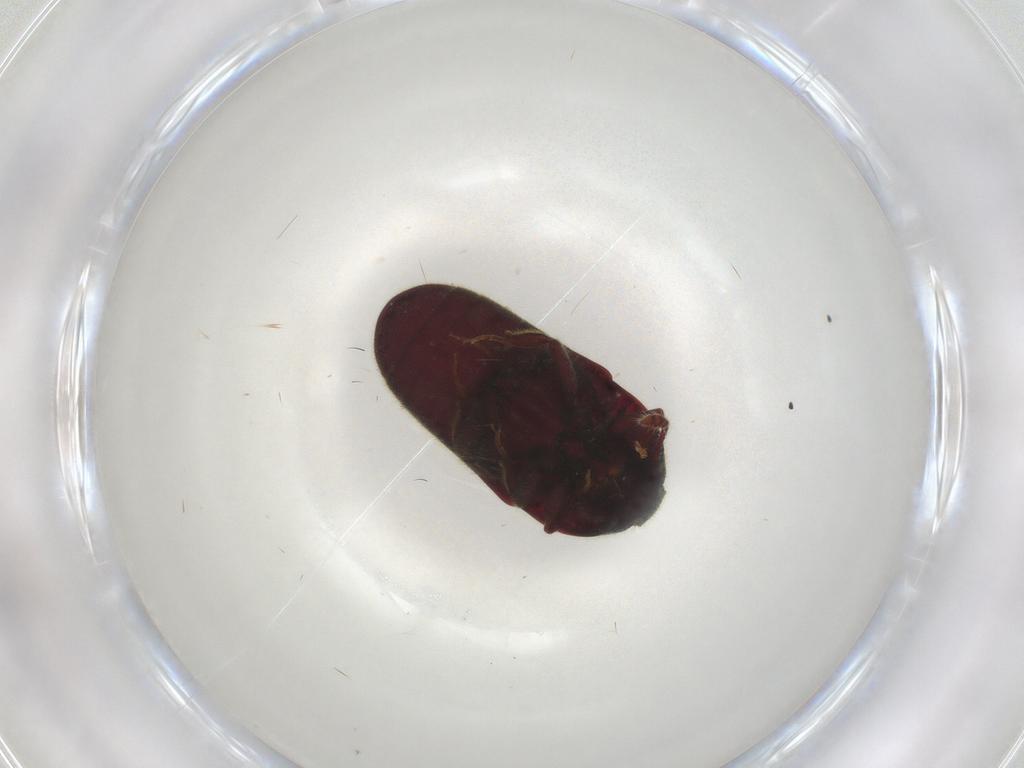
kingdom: Animalia
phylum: Arthropoda
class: Insecta
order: Coleoptera
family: Throscidae
